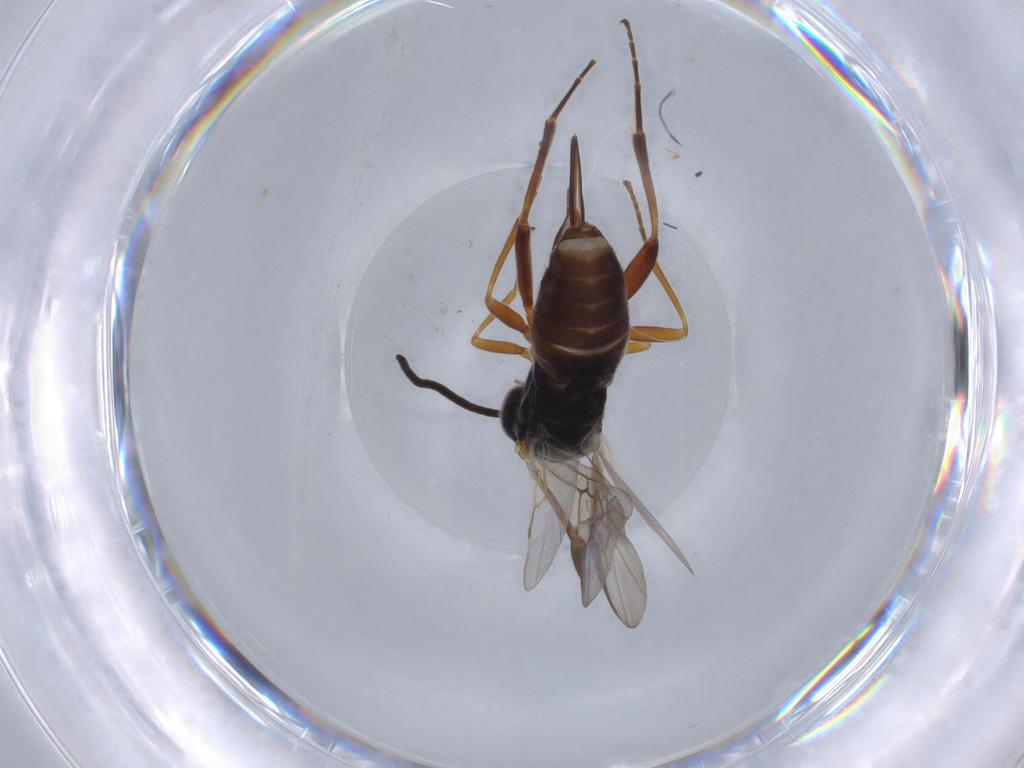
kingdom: Animalia
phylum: Arthropoda
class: Insecta
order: Hymenoptera
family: Braconidae
